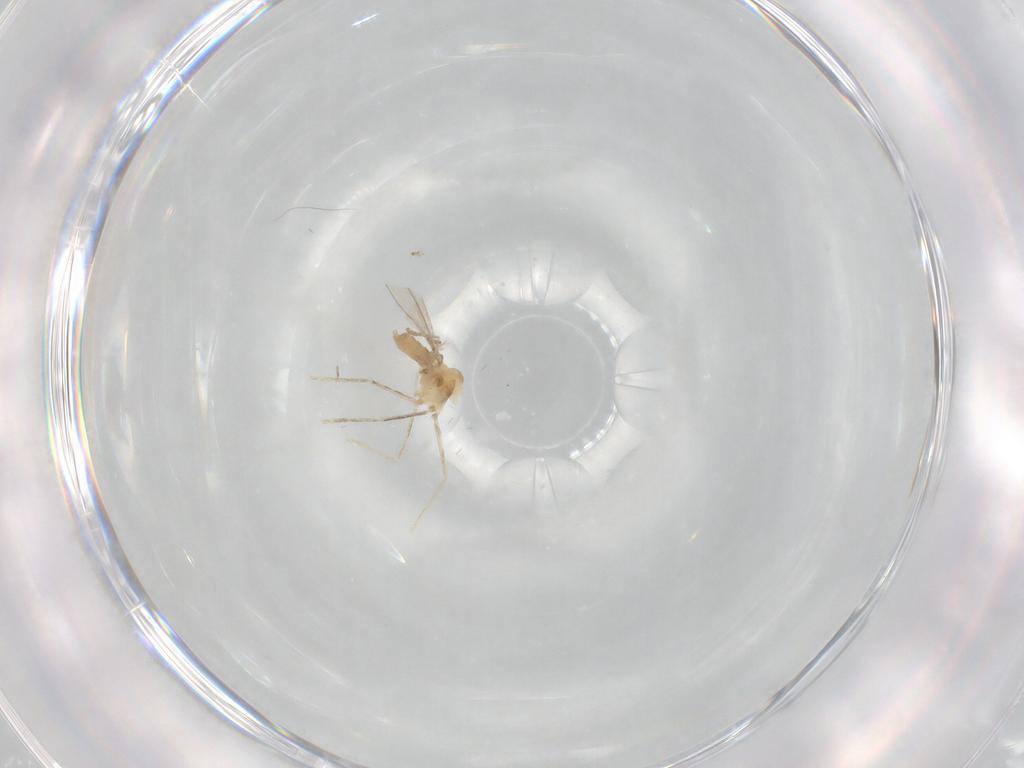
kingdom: Animalia
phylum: Arthropoda
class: Insecta
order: Diptera
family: Cecidomyiidae
